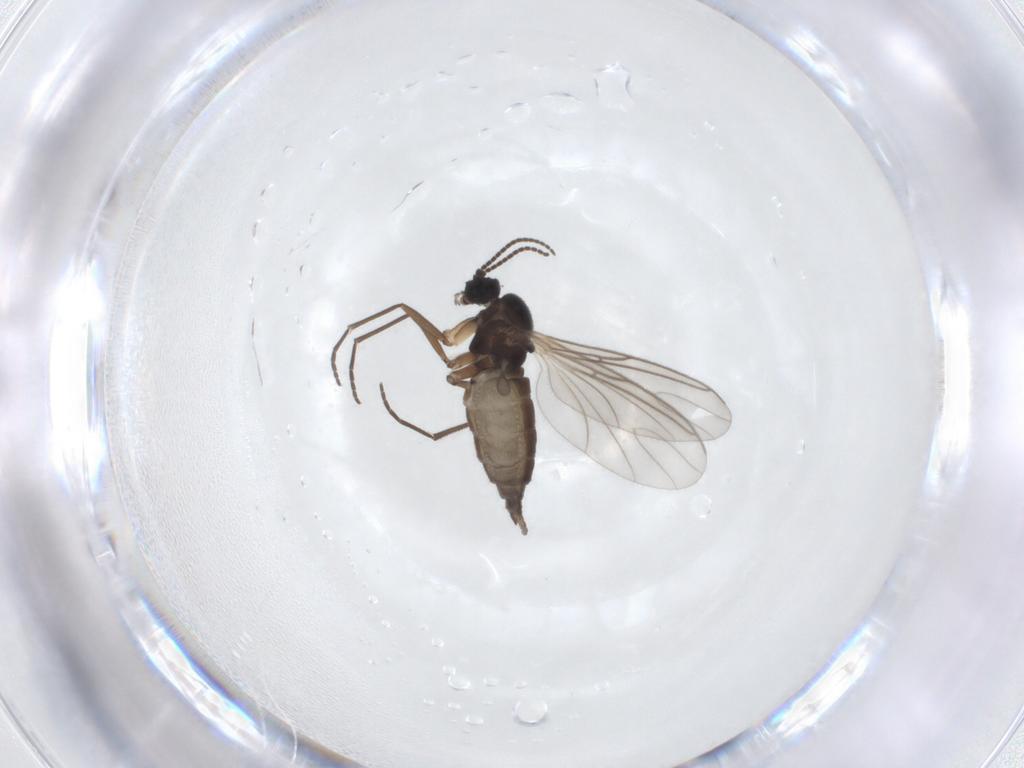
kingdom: Animalia
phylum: Arthropoda
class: Insecta
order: Diptera
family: Sciaridae
